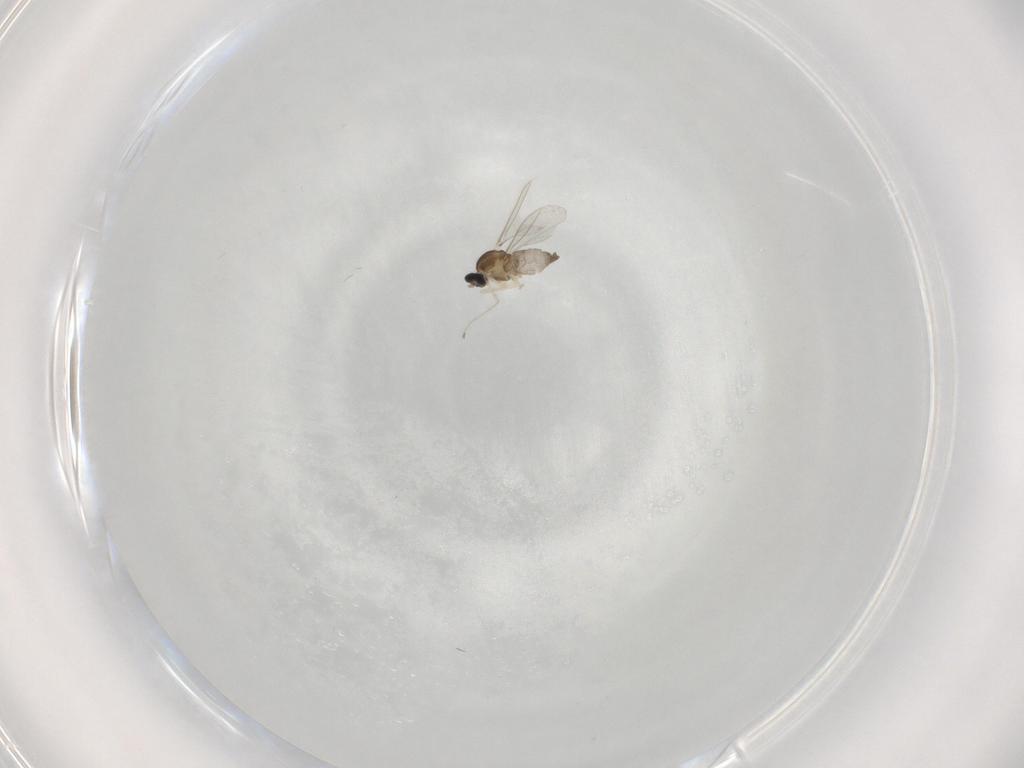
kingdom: Animalia
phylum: Arthropoda
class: Insecta
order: Diptera
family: Cecidomyiidae
